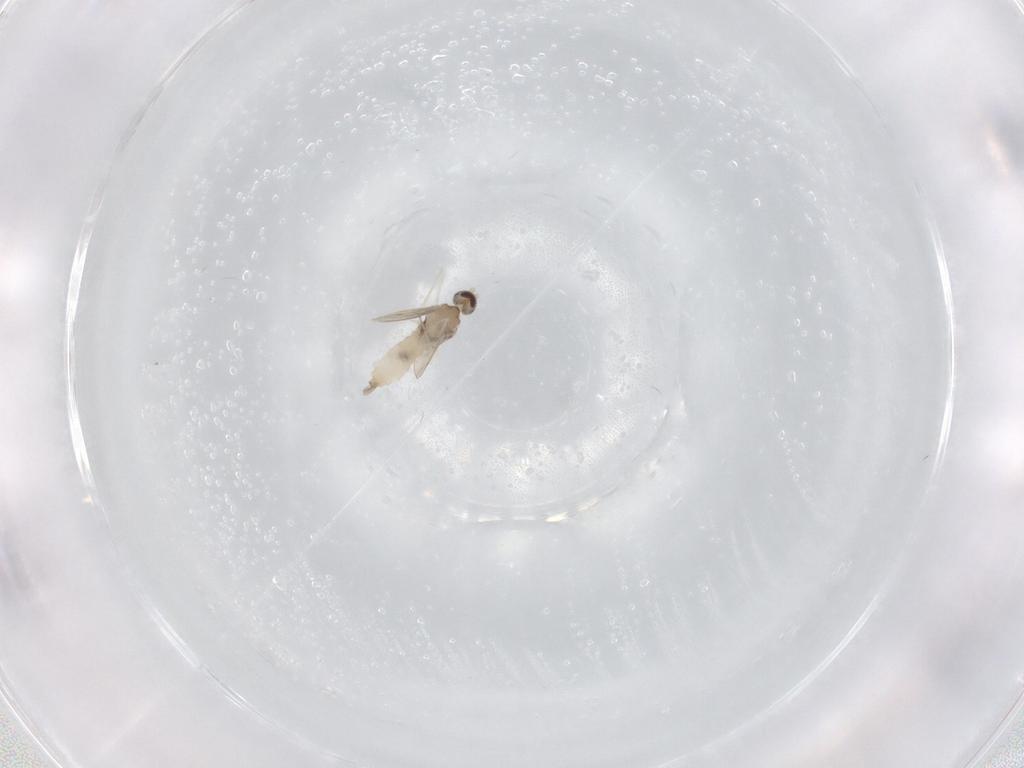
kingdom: Animalia
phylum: Arthropoda
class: Insecta
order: Diptera
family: Cecidomyiidae
